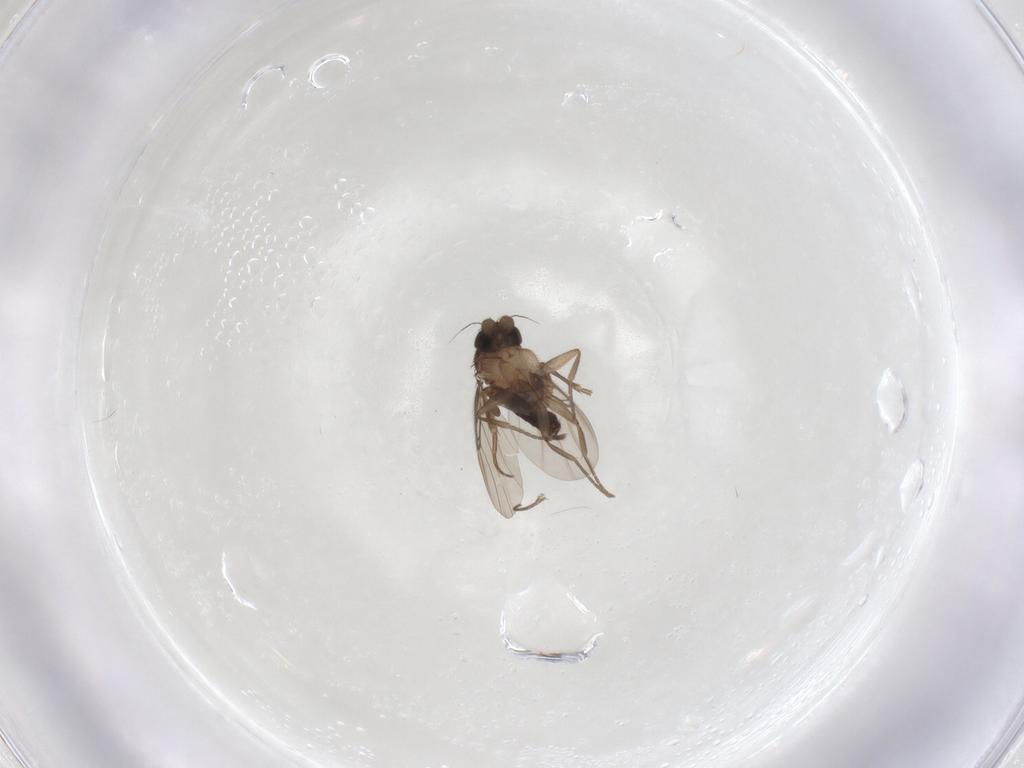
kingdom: Animalia
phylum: Arthropoda
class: Insecta
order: Diptera
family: Phoridae
